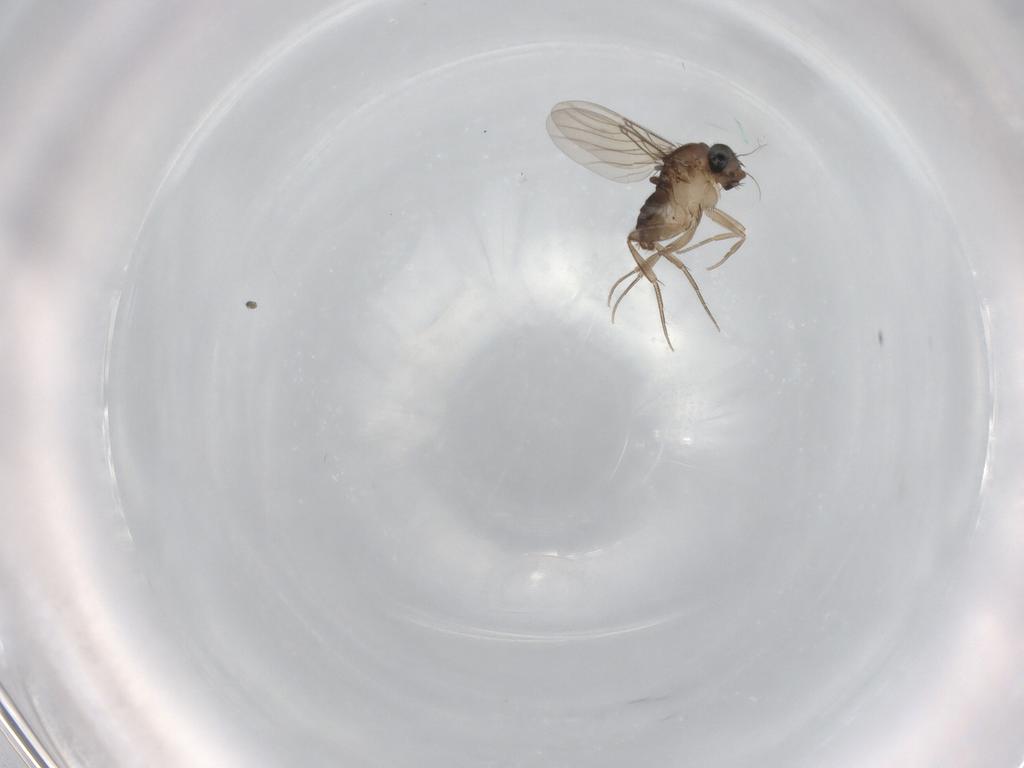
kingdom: Animalia
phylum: Arthropoda
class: Insecta
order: Diptera
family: Phoridae
